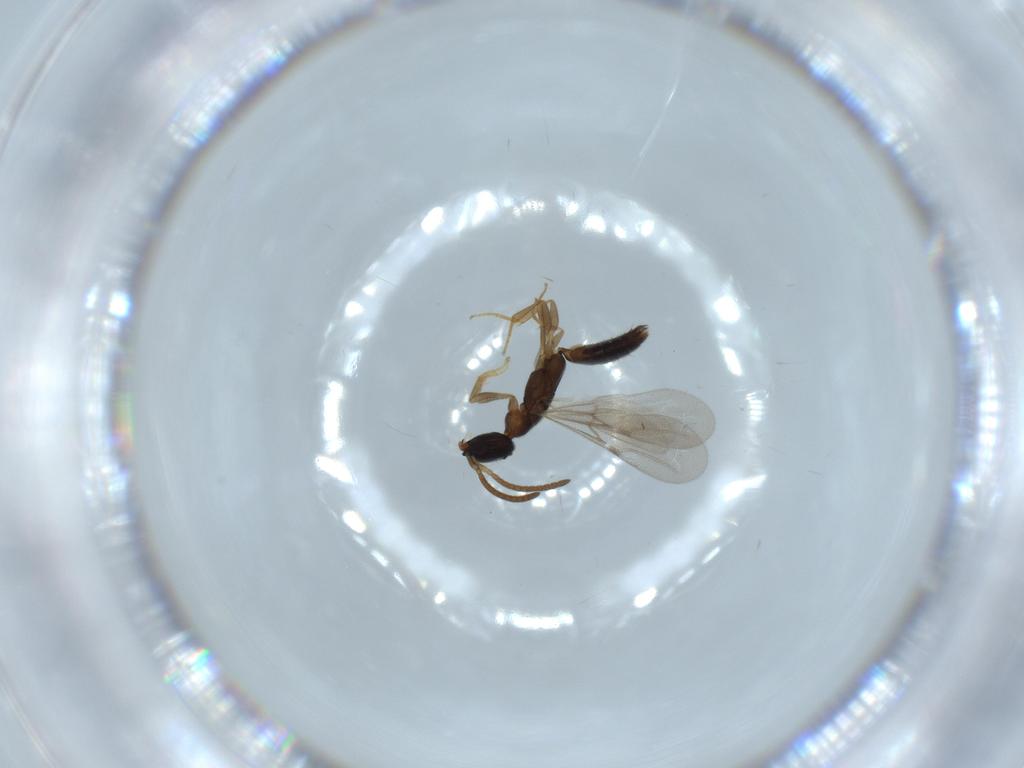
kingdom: Animalia
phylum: Arthropoda
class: Insecta
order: Hymenoptera
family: Bethylidae
